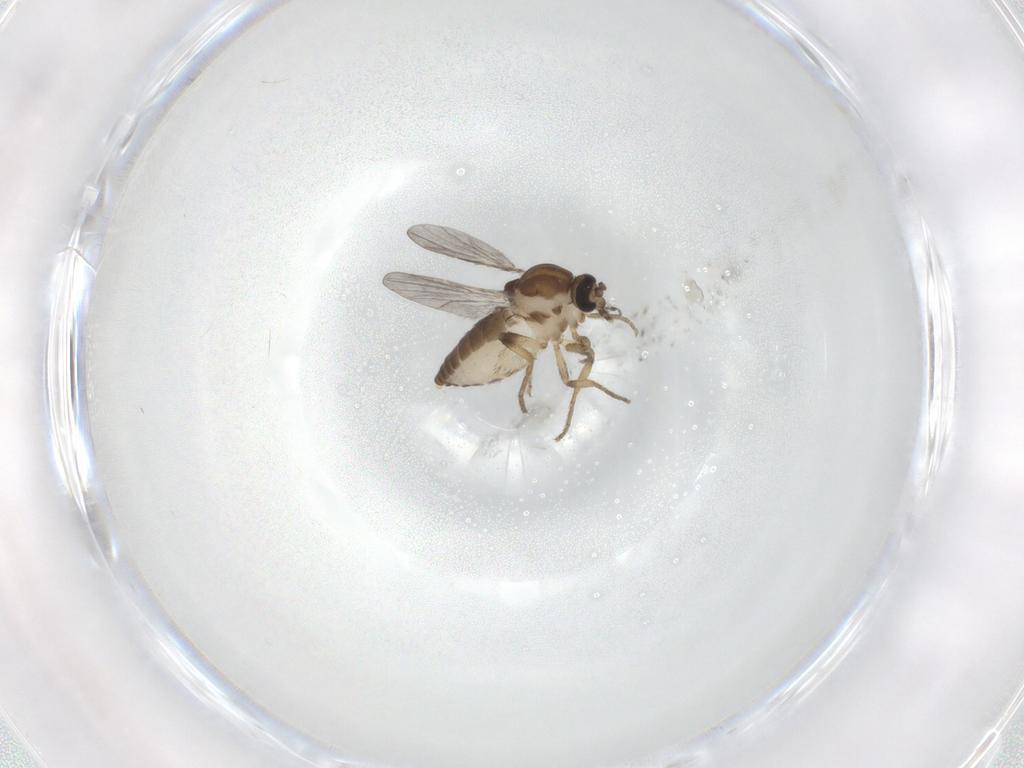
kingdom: Animalia
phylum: Arthropoda
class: Insecta
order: Diptera
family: Ceratopogonidae
